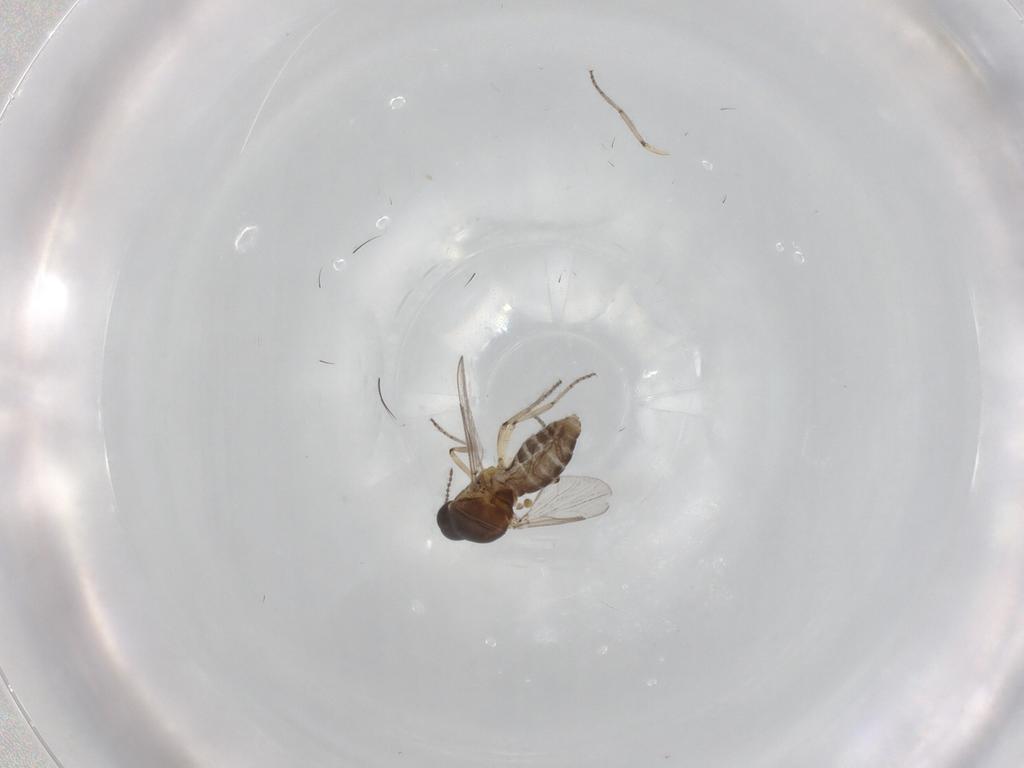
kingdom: Animalia
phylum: Arthropoda
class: Insecta
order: Diptera
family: Ceratopogonidae
